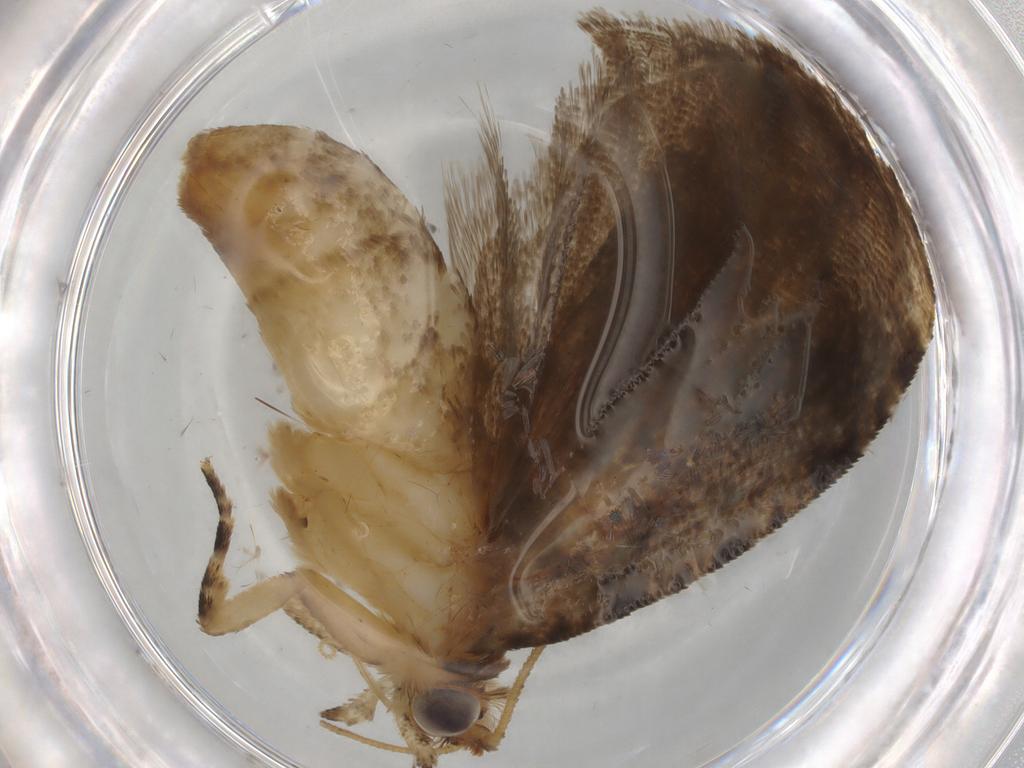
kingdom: Animalia
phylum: Arthropoda
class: Insecta
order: Lepidoptera
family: Tortricidae
